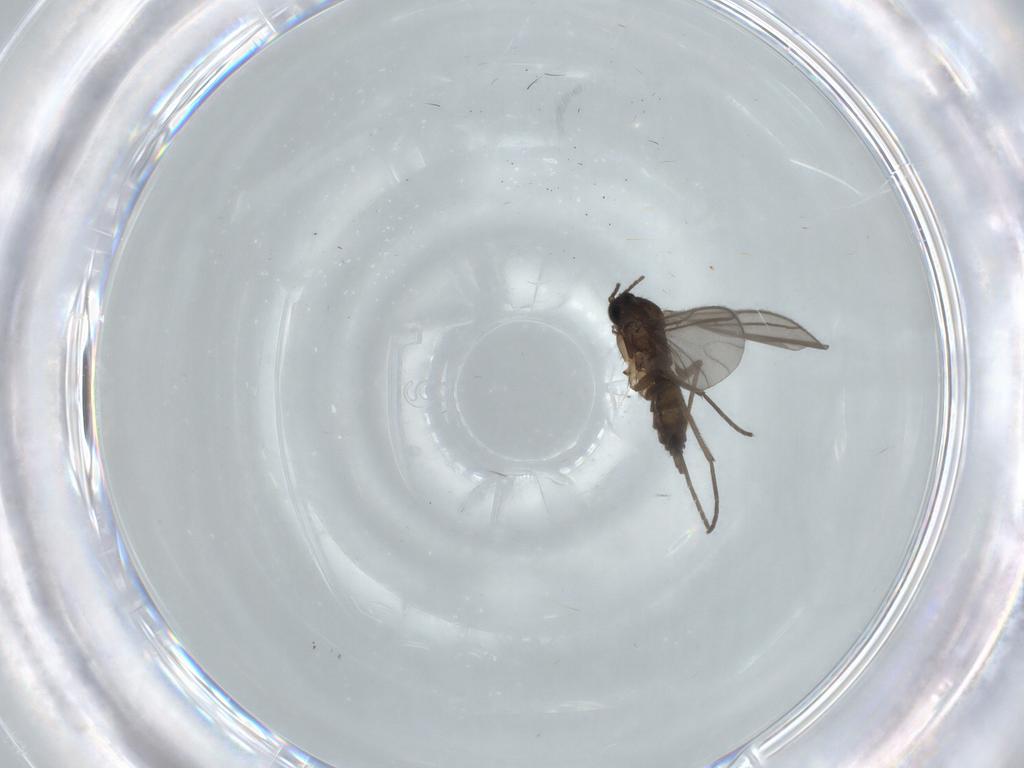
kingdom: Animalia
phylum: Arthropoda
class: Insecta
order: Diptera
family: Sciaridae
